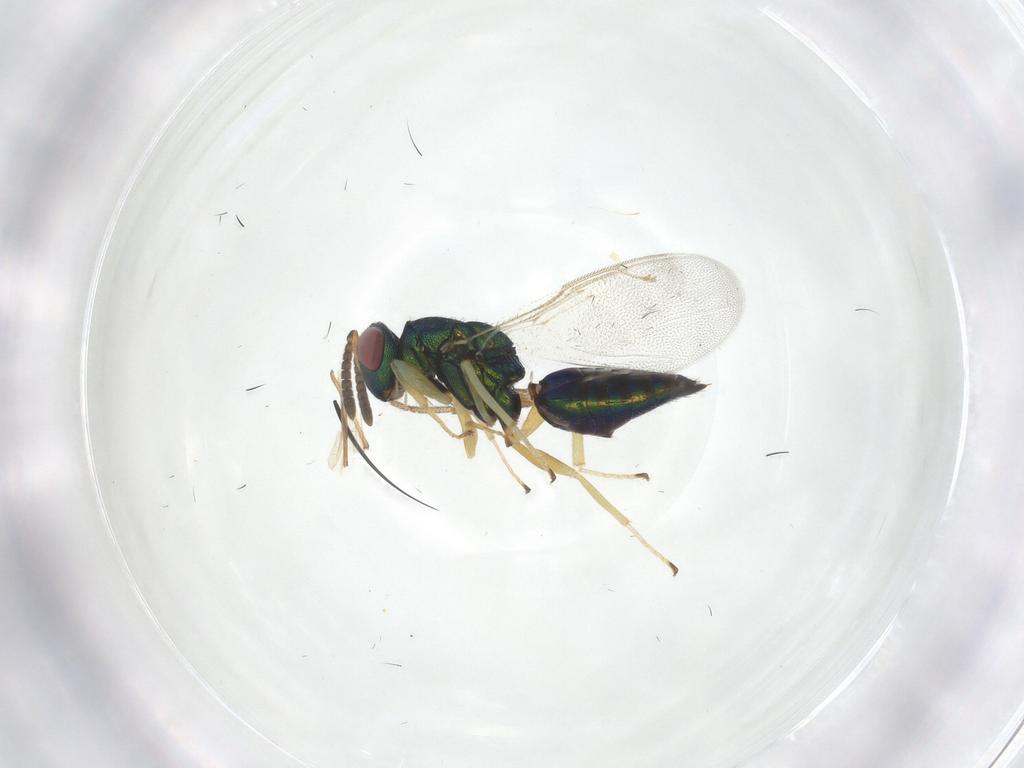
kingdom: Animalia
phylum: Arthropoda
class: Insecta
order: Hymenoptera
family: Pteromalidae
